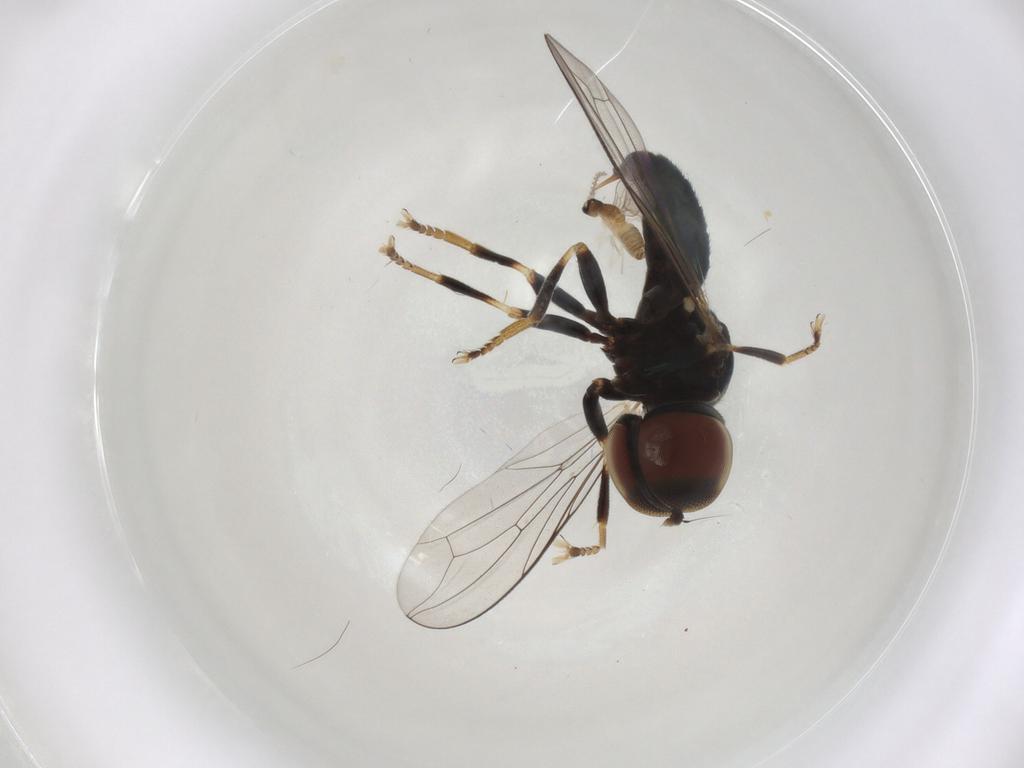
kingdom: Animalia
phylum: Arthropoda
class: Insecta
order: Diptera
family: Pipunculidae
